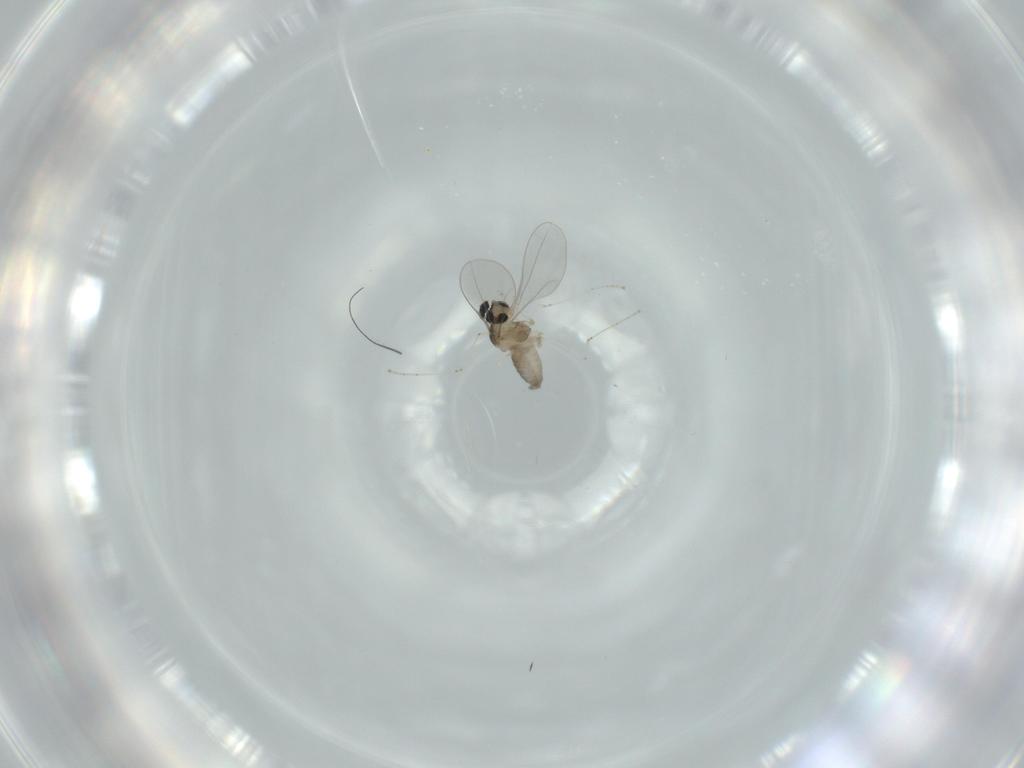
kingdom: Animalia
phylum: Arthropoda
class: Insecta
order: Diptera
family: Cecidomyiidae
